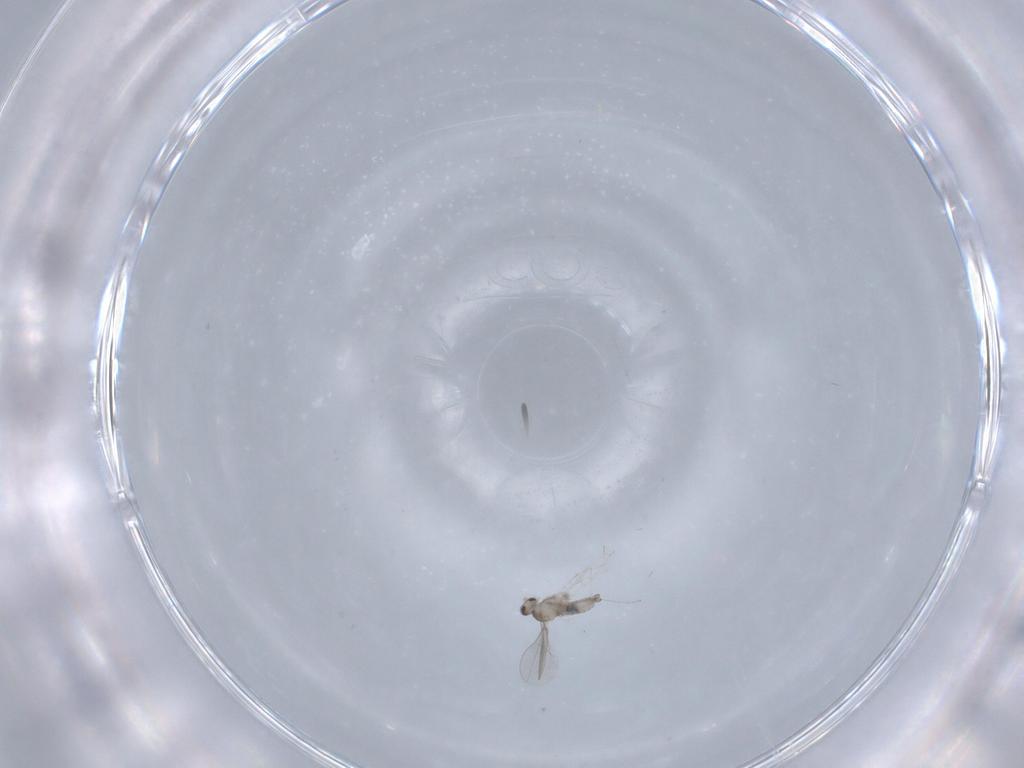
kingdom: Animalia
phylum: Arthropoda
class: Insecta
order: Diptera
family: Cecidomyiidae
